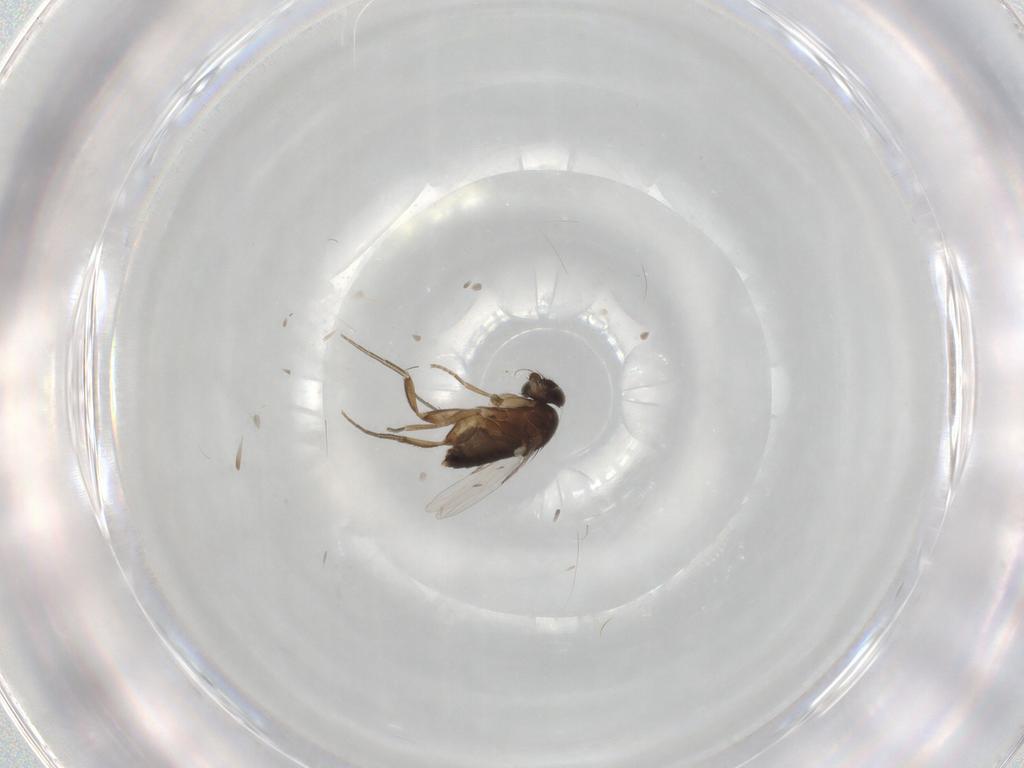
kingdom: Animalia
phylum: Arthropoda
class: Insecta
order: Diptera
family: Phoridae
